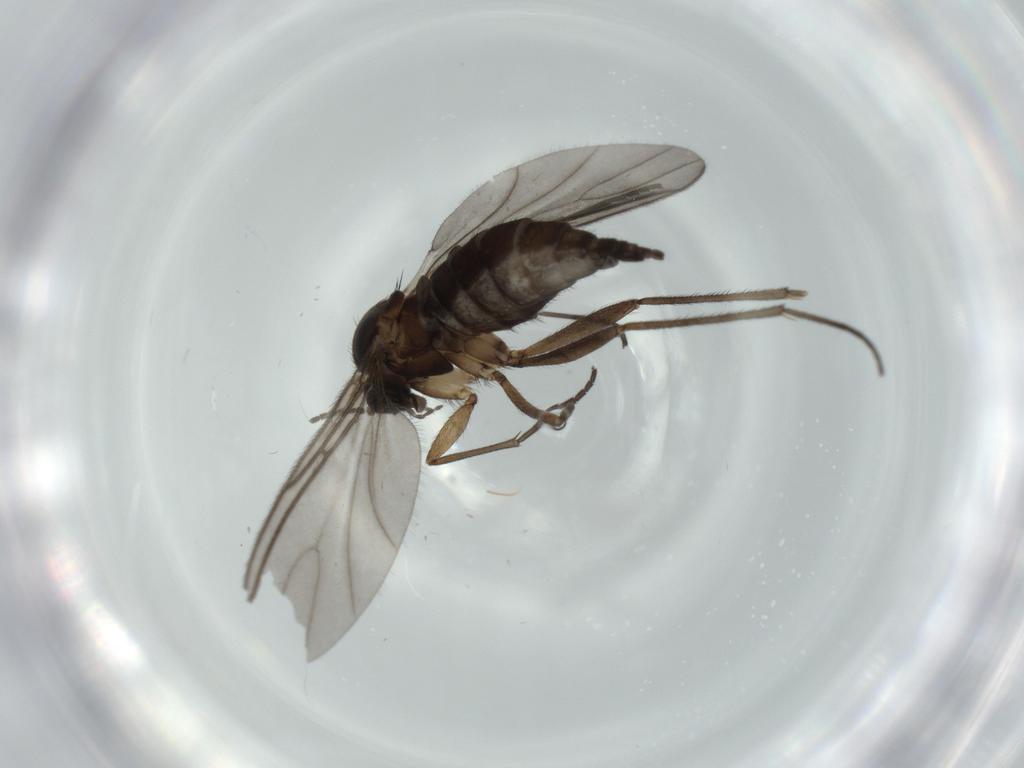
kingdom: Animalia
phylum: Arthropoda
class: Insecta
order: Diptera
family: Sciaridae
